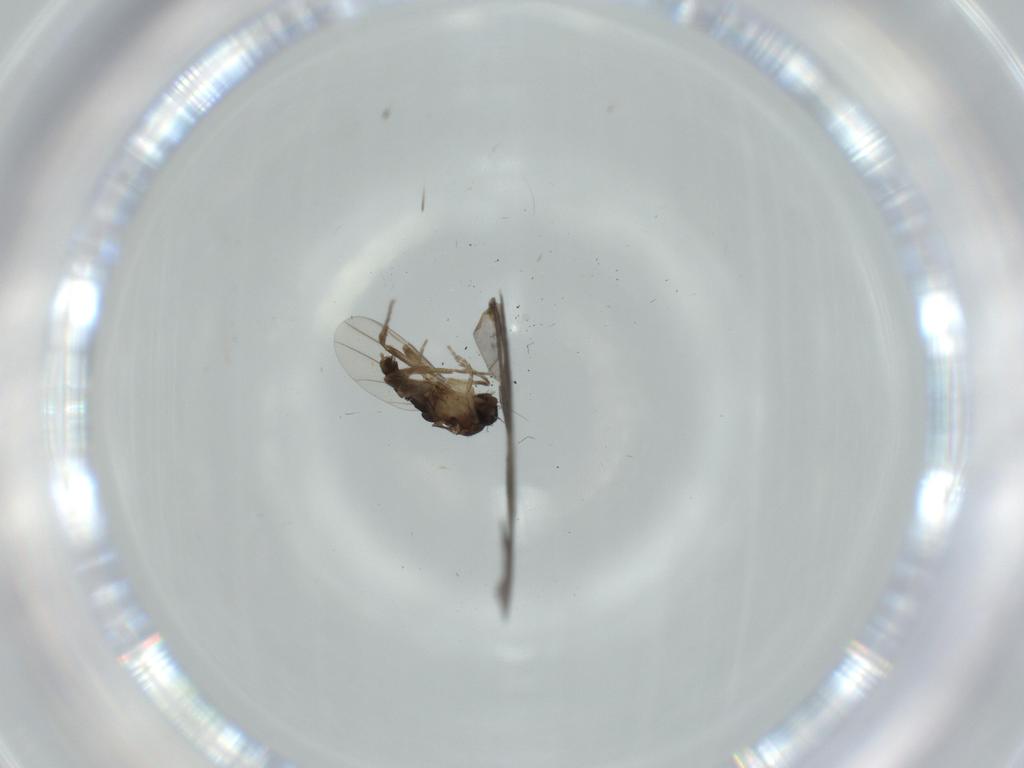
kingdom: Animalia
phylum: Arthropoda
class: Insecta
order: Diptera
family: Phoridae
